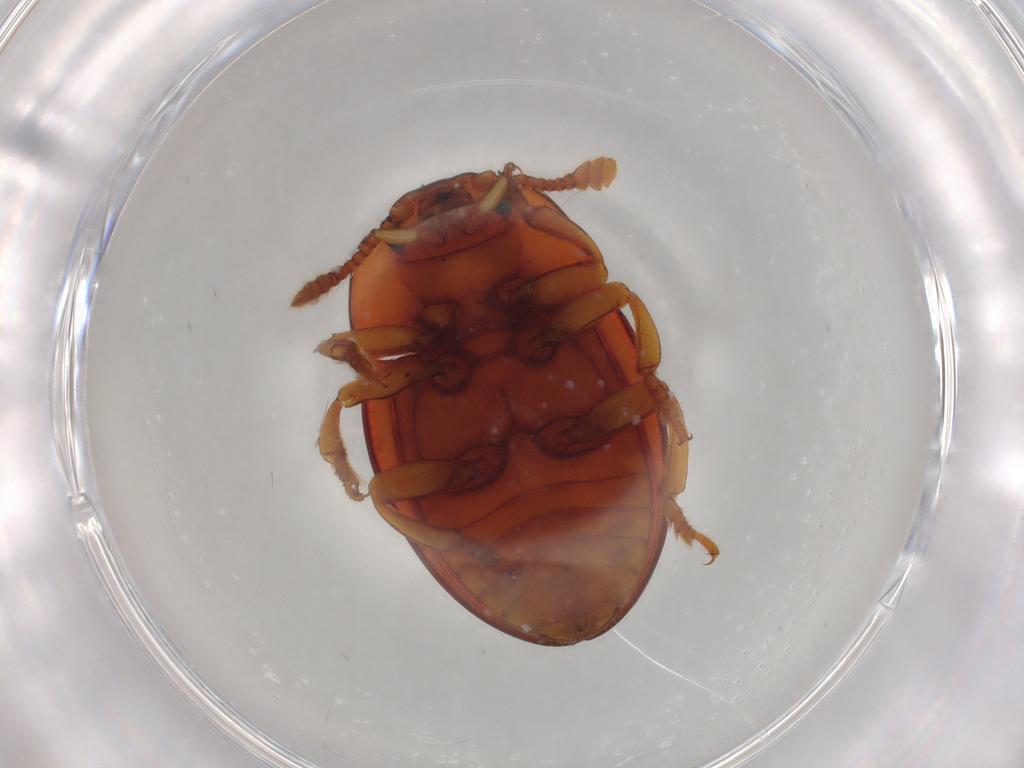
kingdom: Animalia
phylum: Arthropoda
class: Insecta
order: Coleoptera
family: Erotylidae
